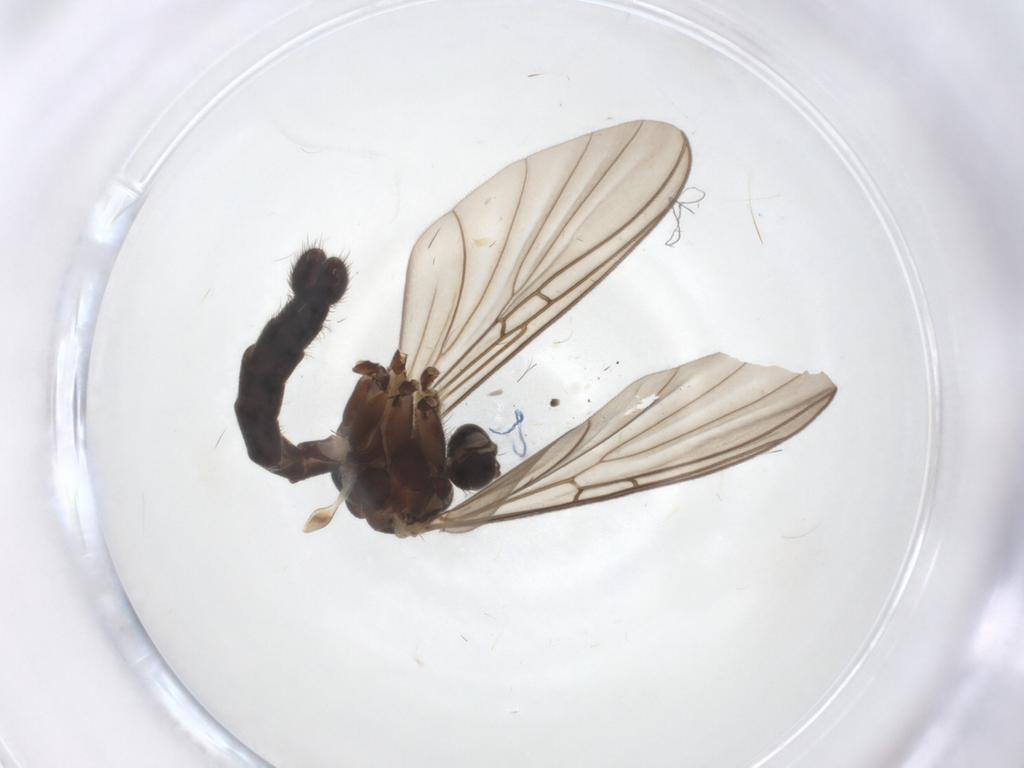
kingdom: Animalia
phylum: Arthropoda
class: Insecta
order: Diptera
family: Mycetophilidae
